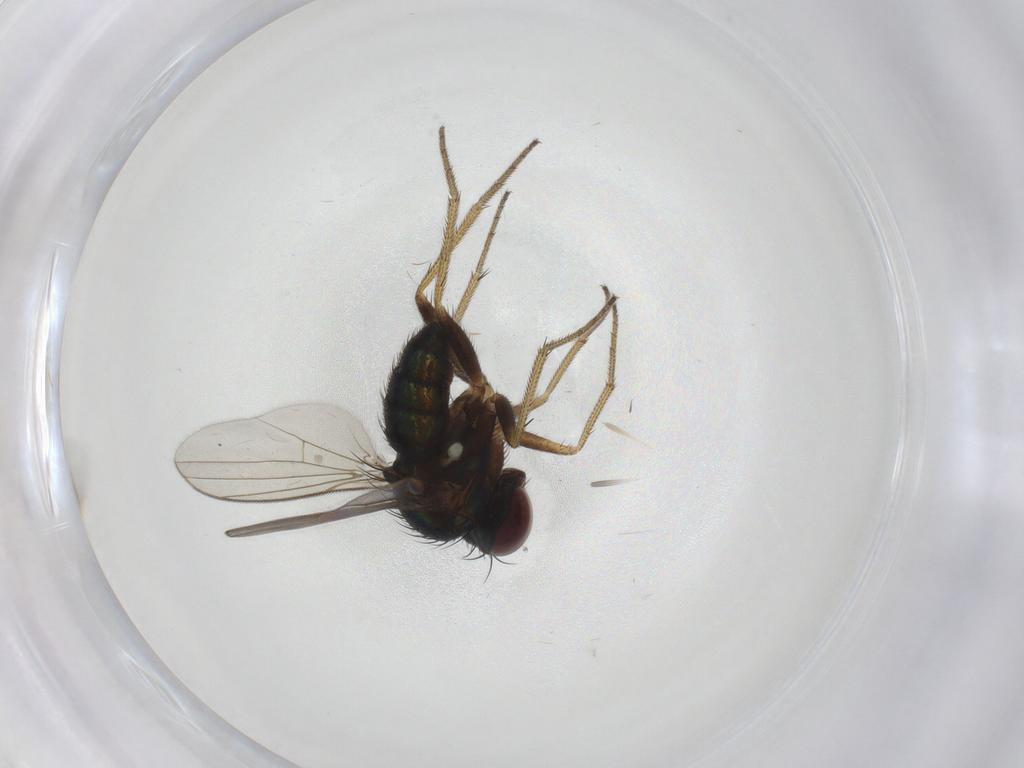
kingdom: Animalia
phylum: Arthropoda
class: Insecta
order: Diptera
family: Dolichopodidae
